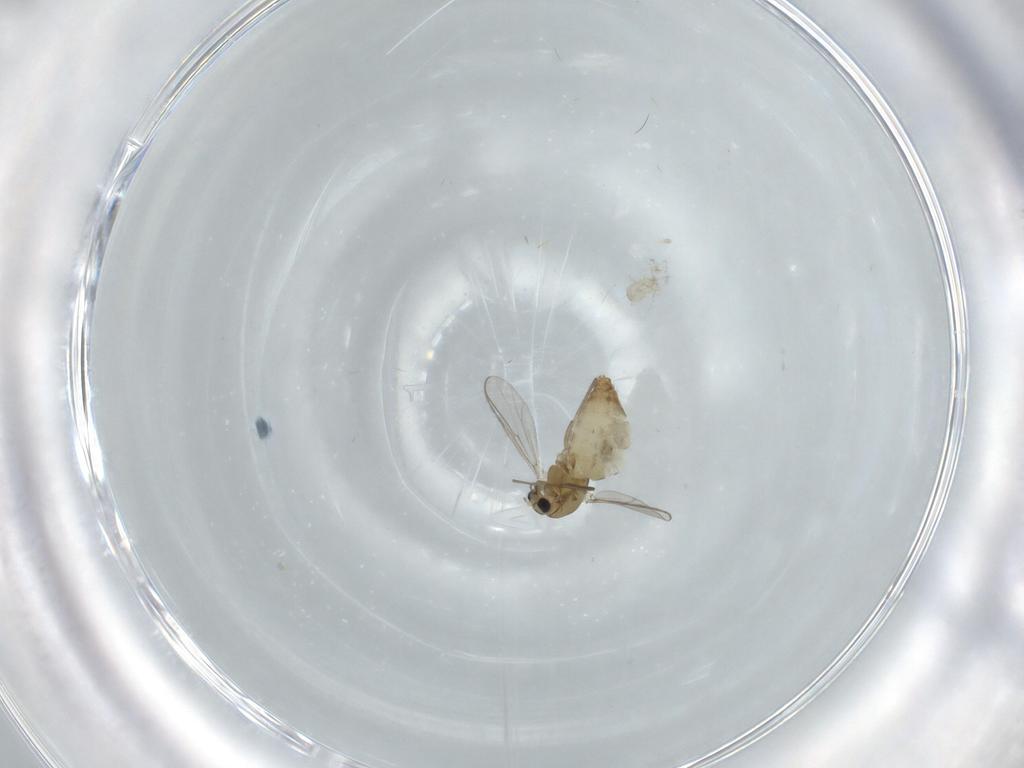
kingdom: Animalia
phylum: Arthropoda
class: Insecta
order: Diptera
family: Chironomidae
